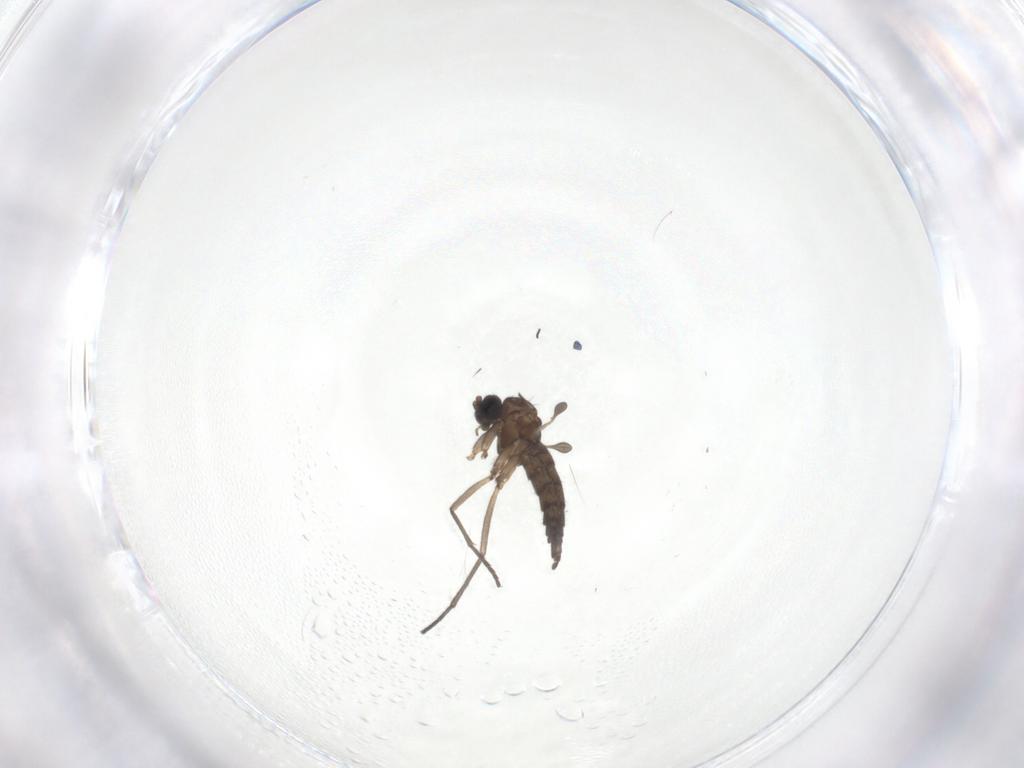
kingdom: Animalia
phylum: Arthropoda
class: Insecta
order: Diptera
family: Sciaridae
